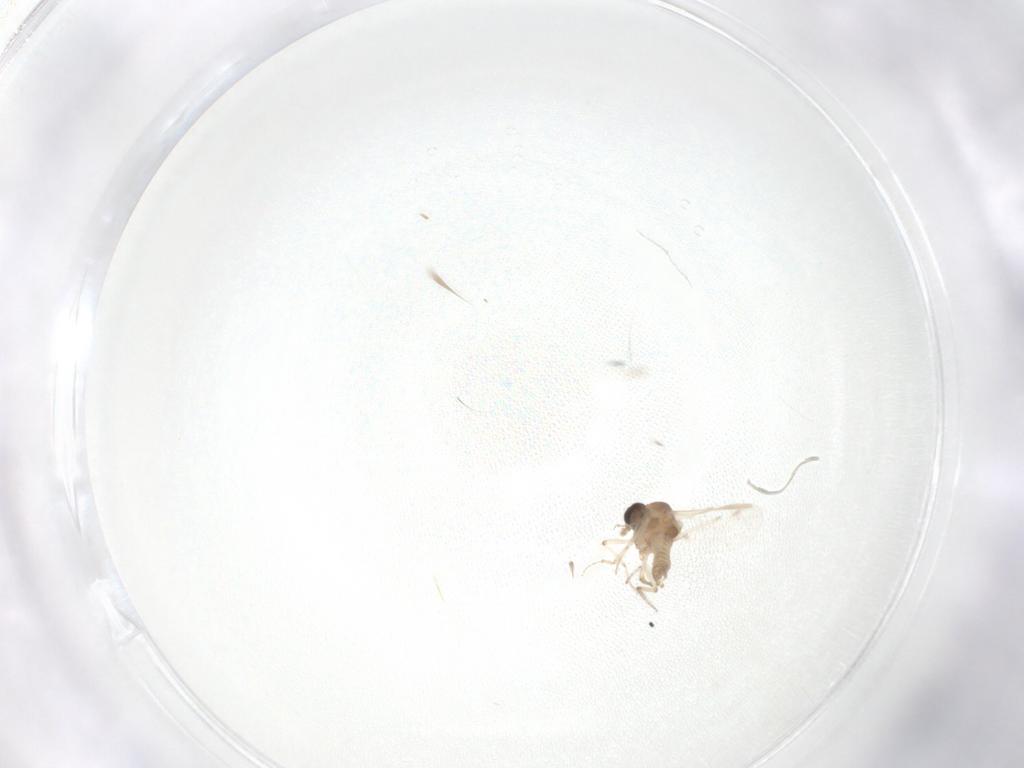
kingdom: Animalia
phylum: Arthropoda
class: Insecta
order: Diptera
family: Ceratopogonidae
